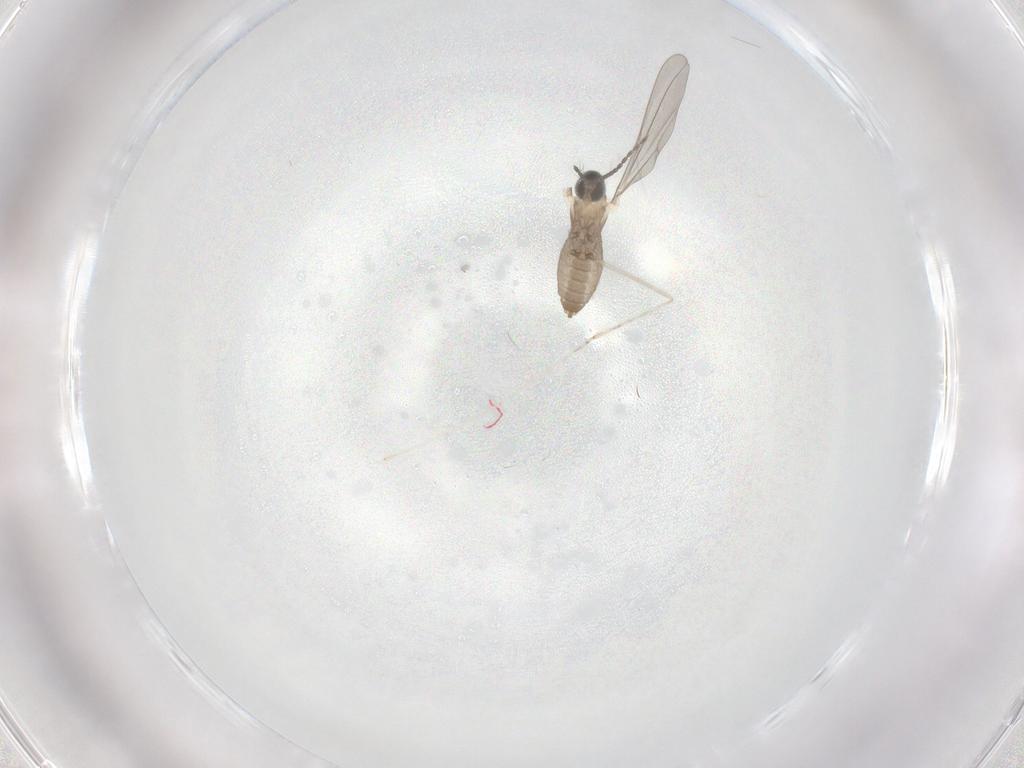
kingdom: Animalia
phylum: Arthropoda
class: Insecta
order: Diptera
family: Cecidomyiidae
